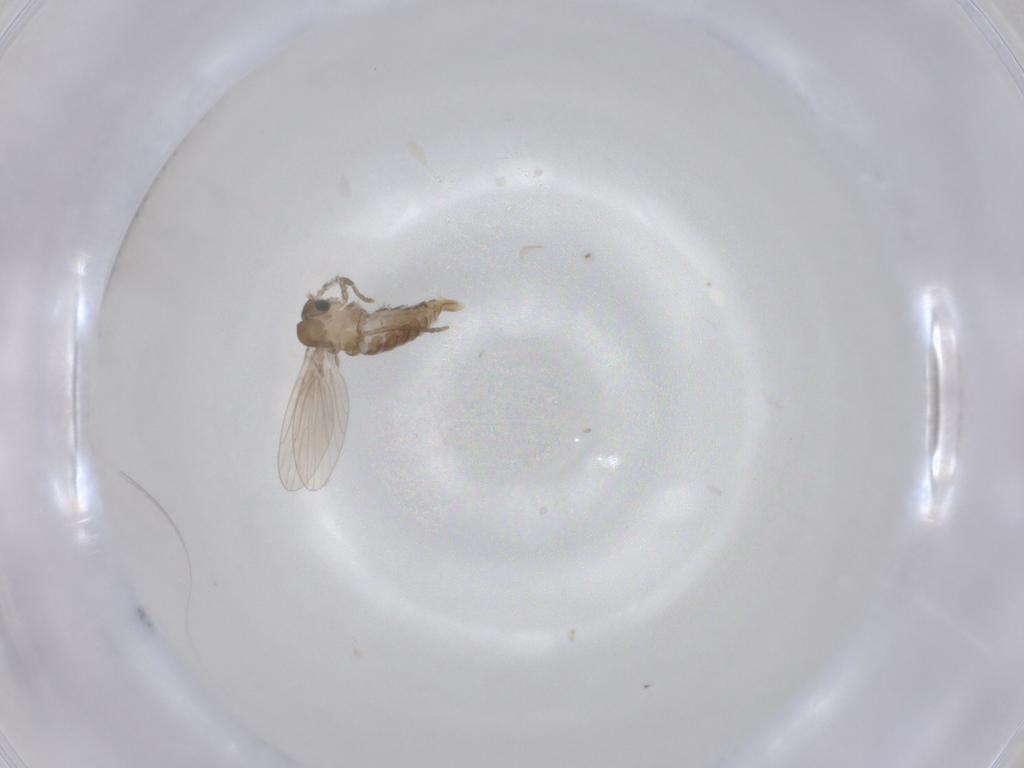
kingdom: Animalia
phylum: Arthropoda
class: Insecta
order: Diptera
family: Psychodidae
